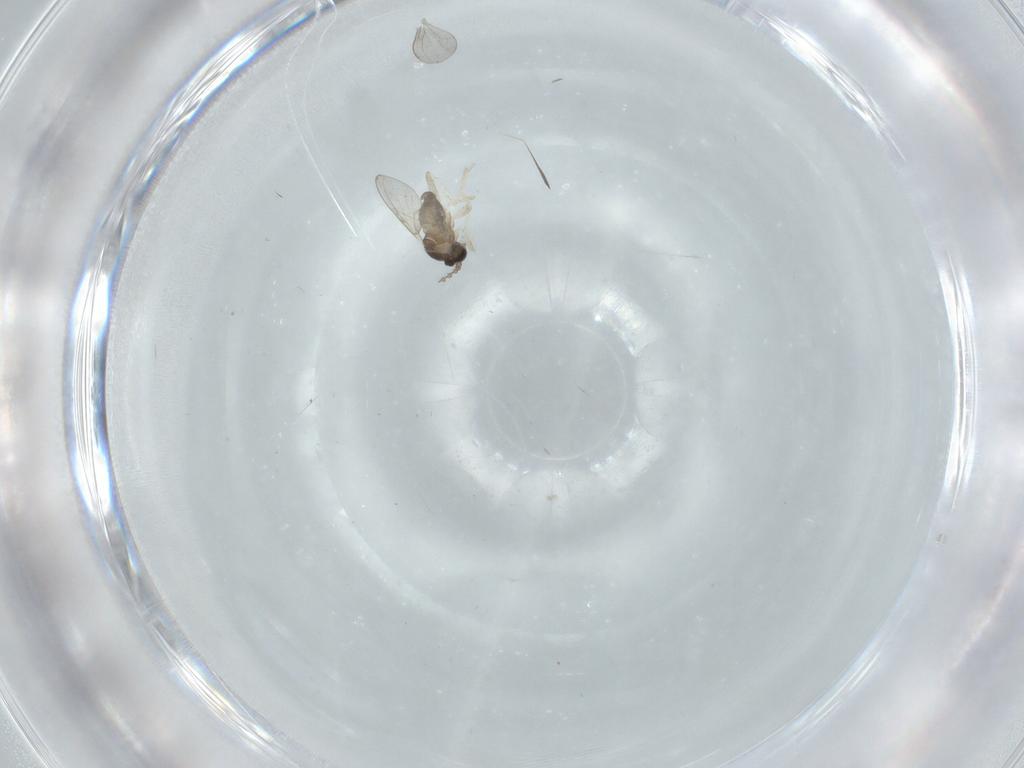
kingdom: Animalia
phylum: Arthropoda
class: Insecta
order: Diptera
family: Cecidomyiidae
